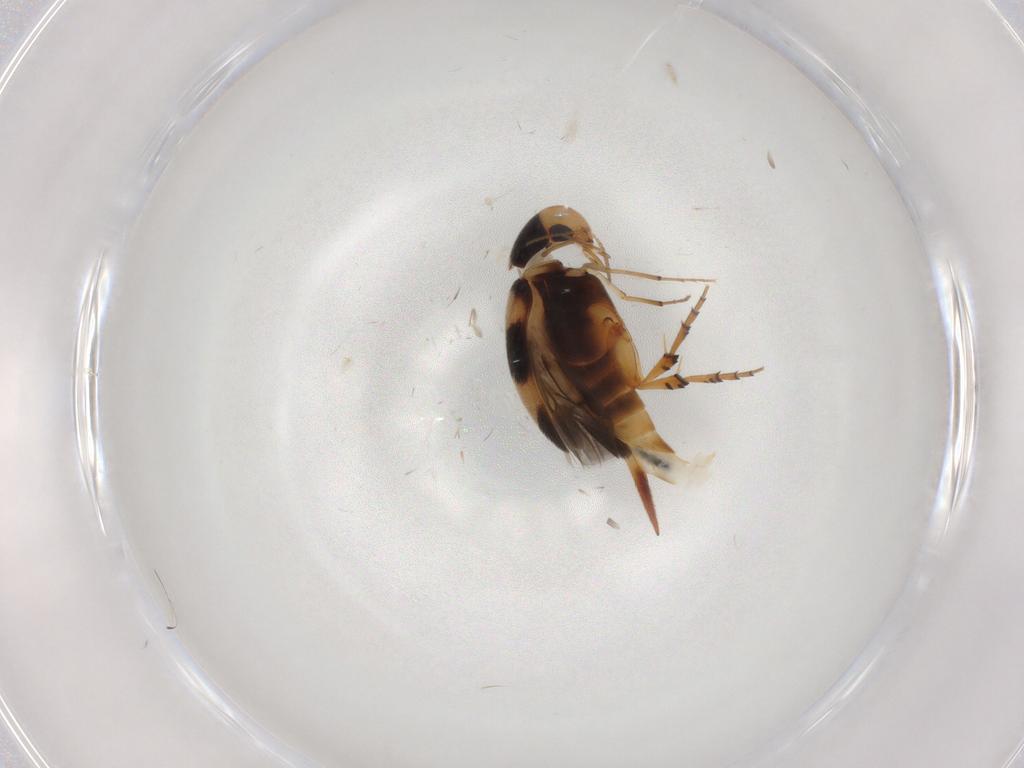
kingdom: Animalia
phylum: Arthropoda
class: Insecta
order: Coleoptera
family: Mordellidae
